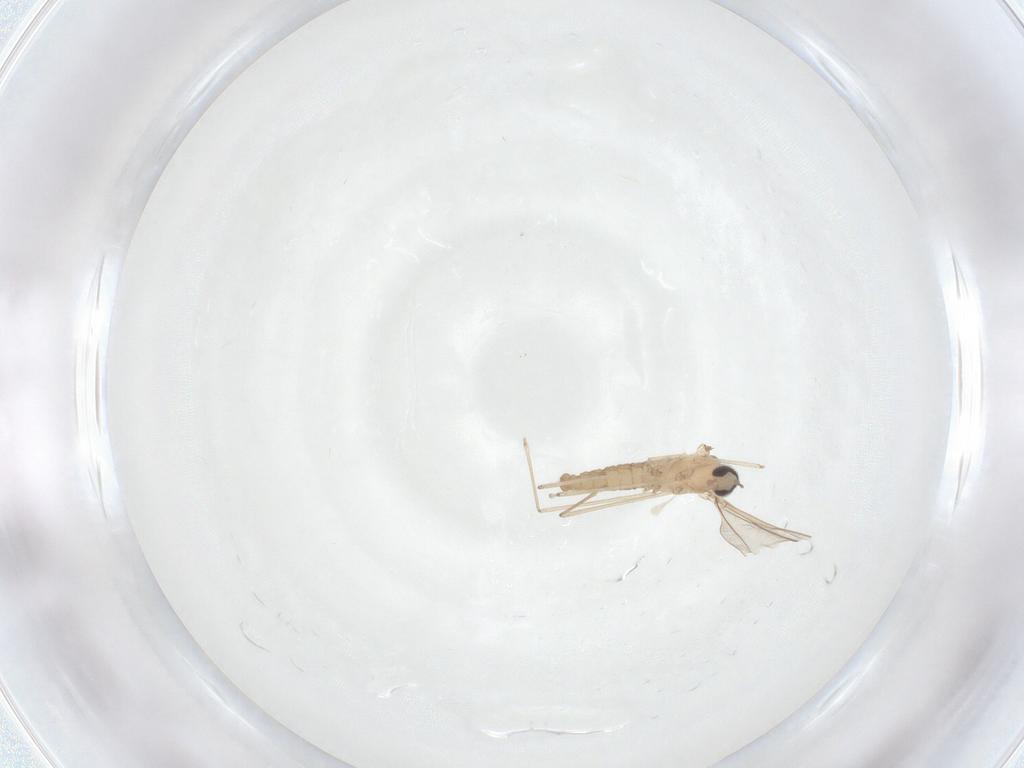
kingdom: Animalia
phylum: Arthropoda
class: Insecta
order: Diptera
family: Cecidomyiidae
